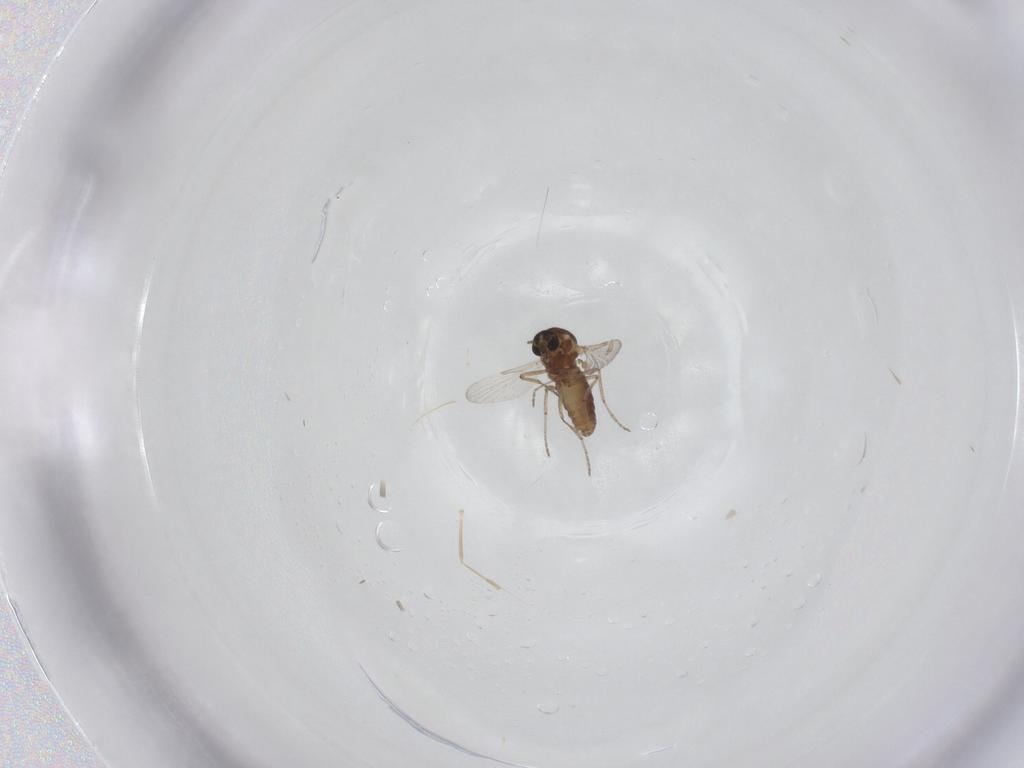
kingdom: Animalia
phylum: Arthropoda
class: Insecta
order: Diptera
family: Ceratopogonidae
